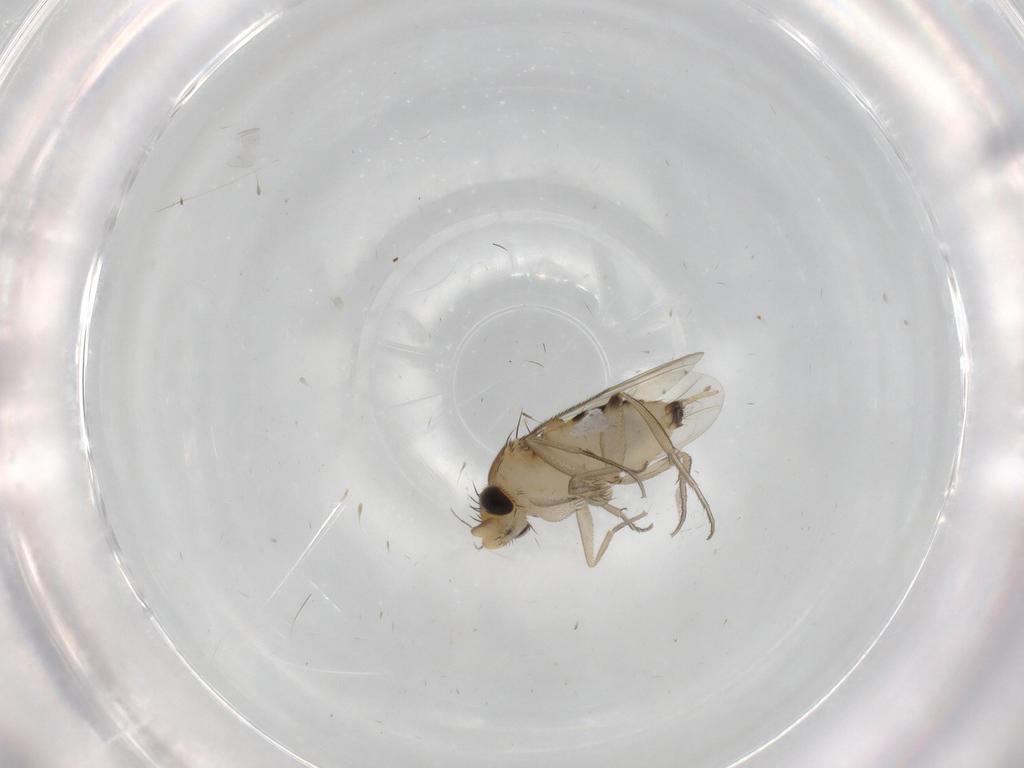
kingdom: Animalia
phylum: Arthropoda
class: Insecta
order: Diptera
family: Phoridae
